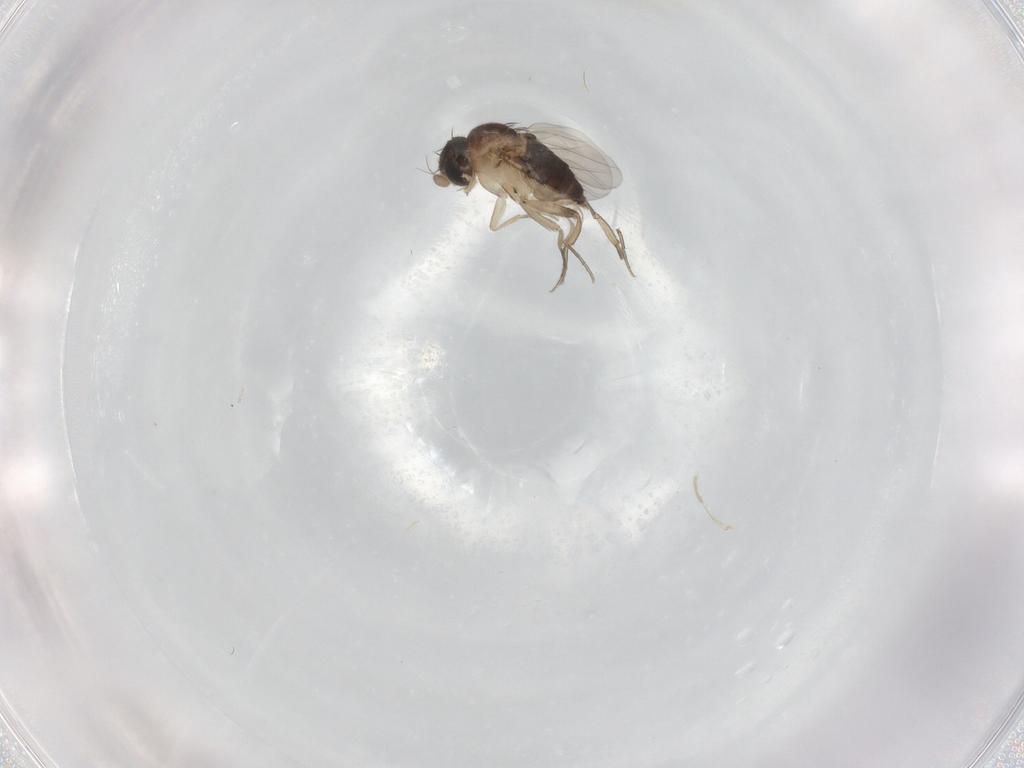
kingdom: Animalia
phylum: Arthropoda
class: Insecta
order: Diptera
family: Phoridae
